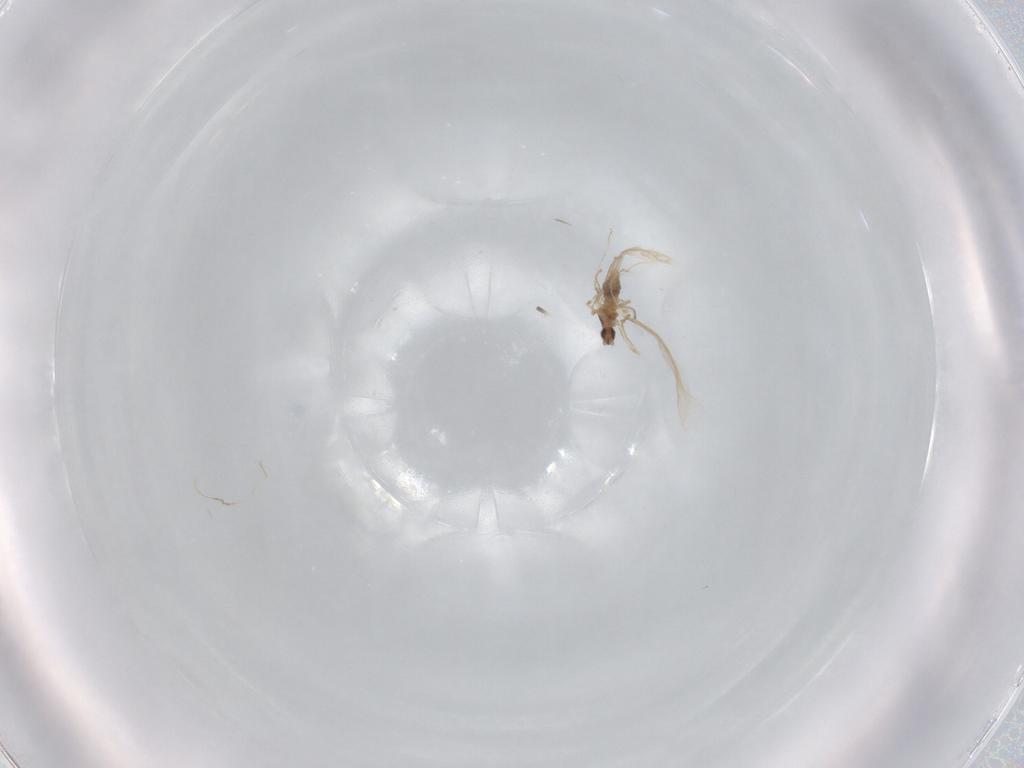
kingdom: Animalia
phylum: Arthropoda
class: Insecta
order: Diptera
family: Cecidomyiidae
